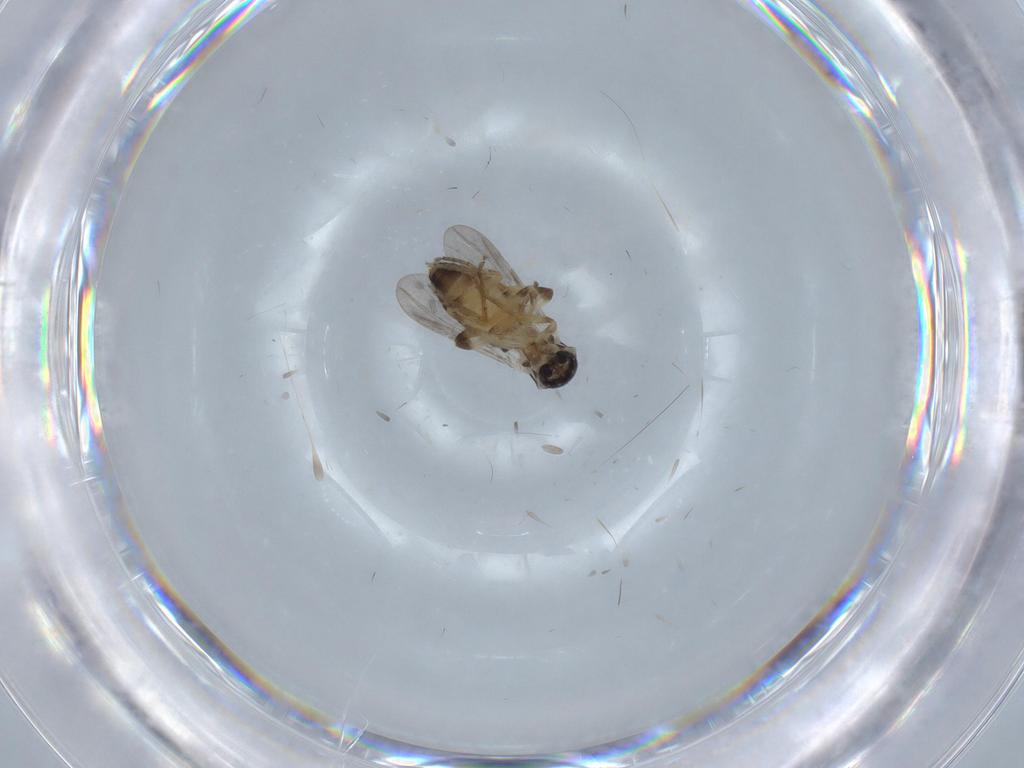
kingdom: Animalia
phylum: Arthropoda
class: Insecta
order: Diptera
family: Ceratopogonidae
